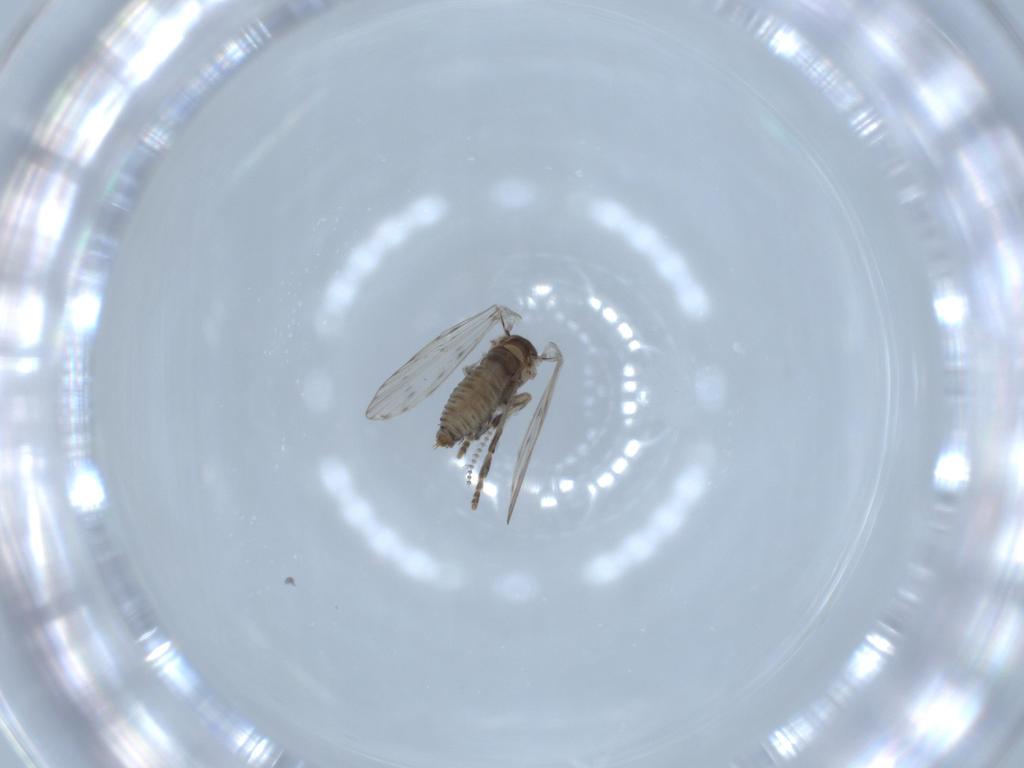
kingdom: Animalia
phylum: Arthropoda
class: Insecta
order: Diptera
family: Psychodidae
